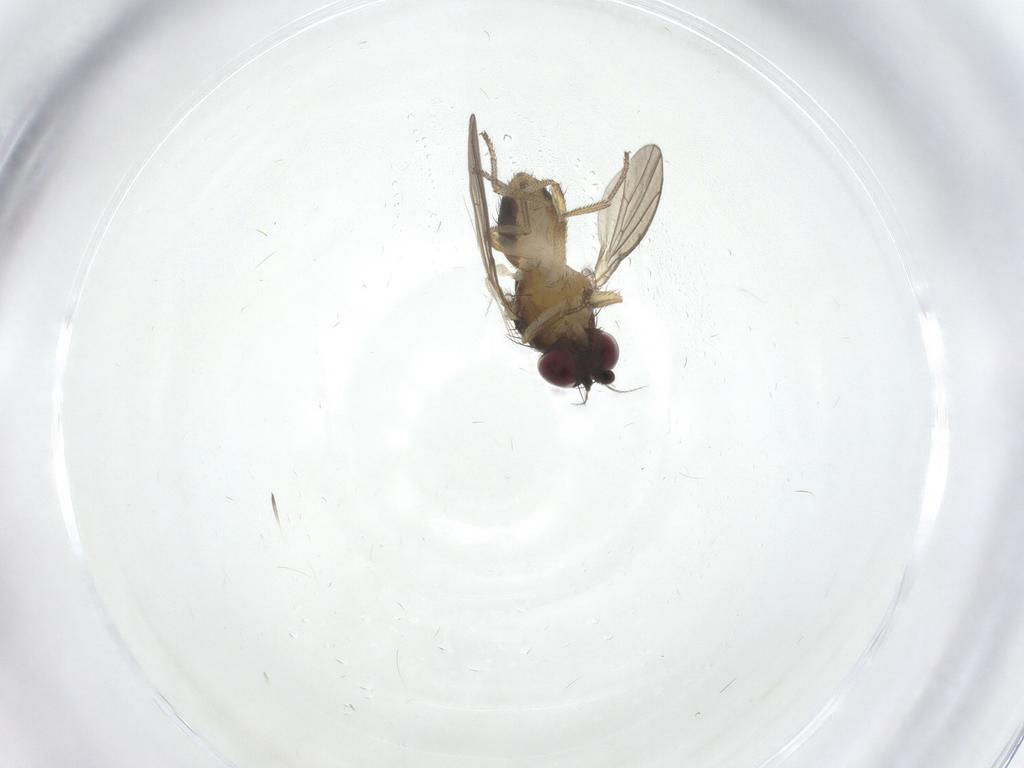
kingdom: Animalia
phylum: Arthropoda
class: Insecta
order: Diptera
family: Lauxaniidae
